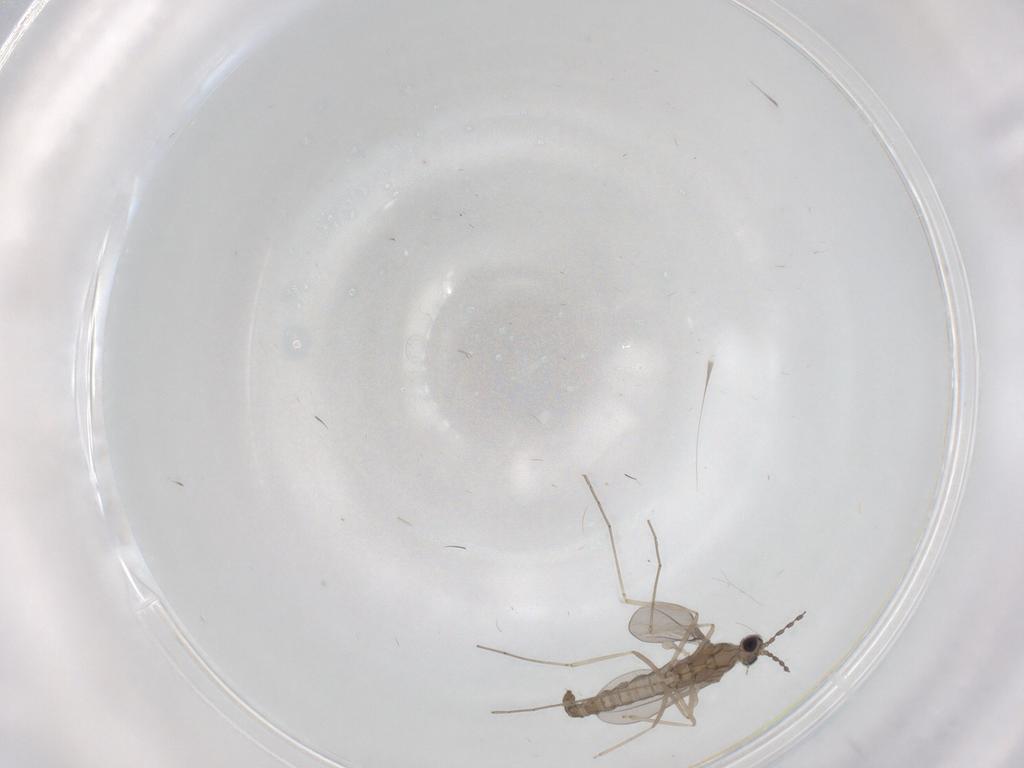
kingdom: Animalia
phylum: Arthropoda
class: Insecta
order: Diptera
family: Cecidomyiidae
